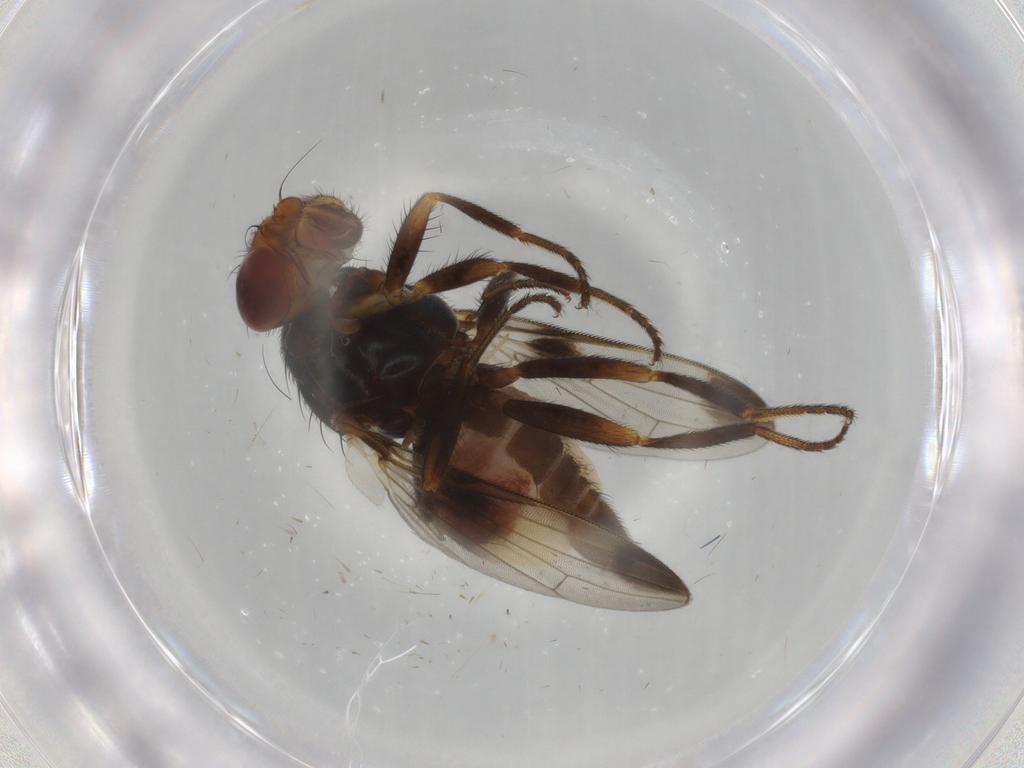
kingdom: Animalia
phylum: Arthropoda
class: Insecta
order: Diptera
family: Ulidiidae
